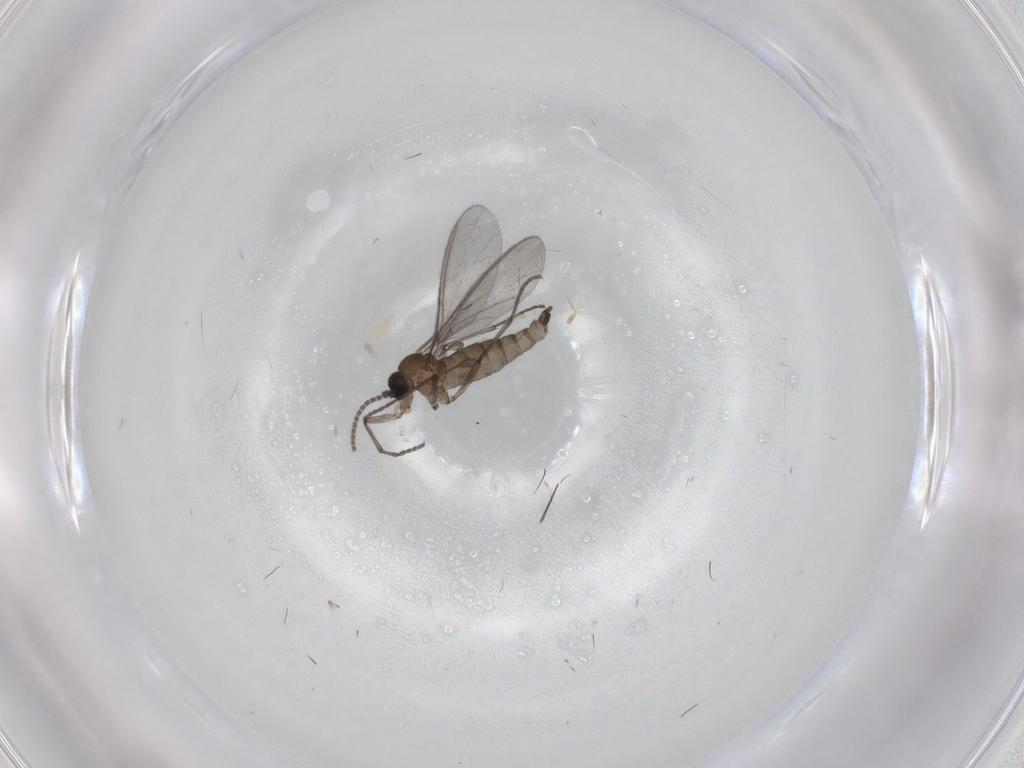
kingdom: Animalia
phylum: Arthropoda
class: Insecta
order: Diptera
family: Sciaridae
